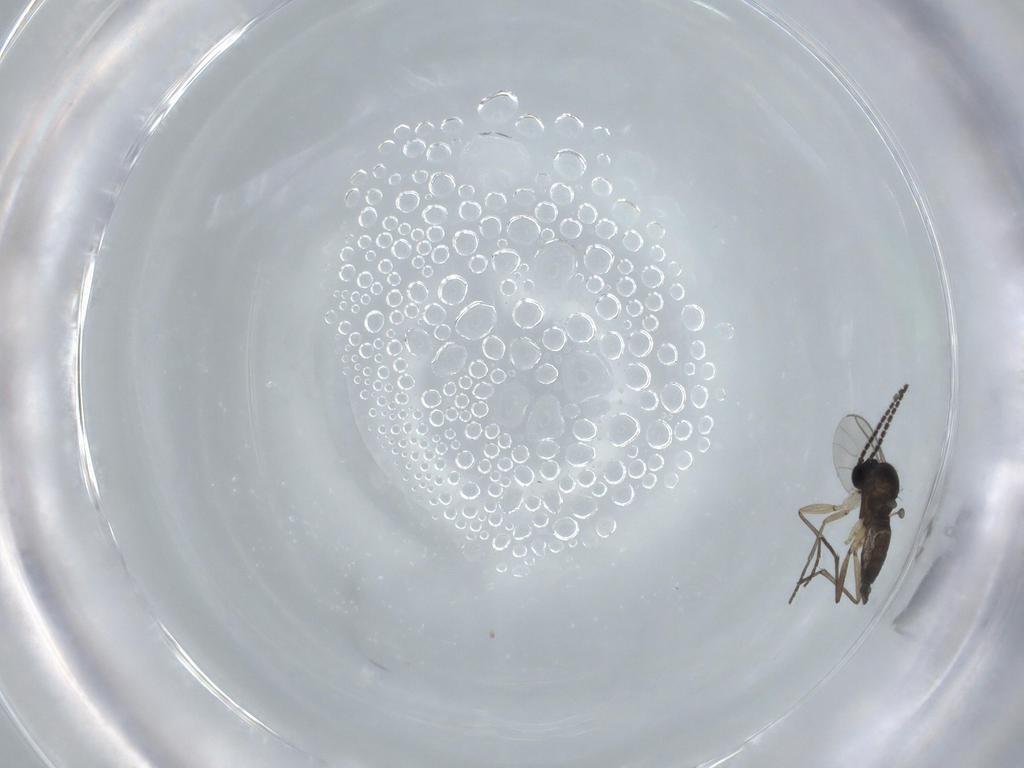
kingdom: Animalia
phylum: Arthropoda
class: Insecta
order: Diptera
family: Sciaridae
